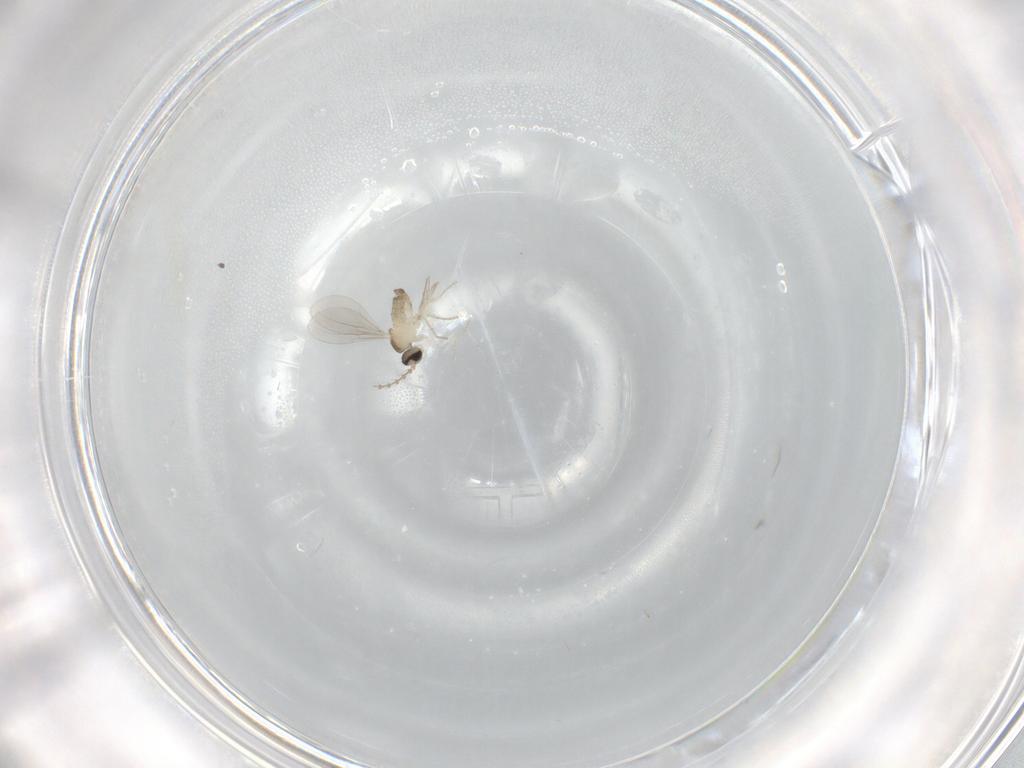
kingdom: Animalia
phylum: Arthropoda
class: Insecta
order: Diptera
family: Cecidomyiidae
